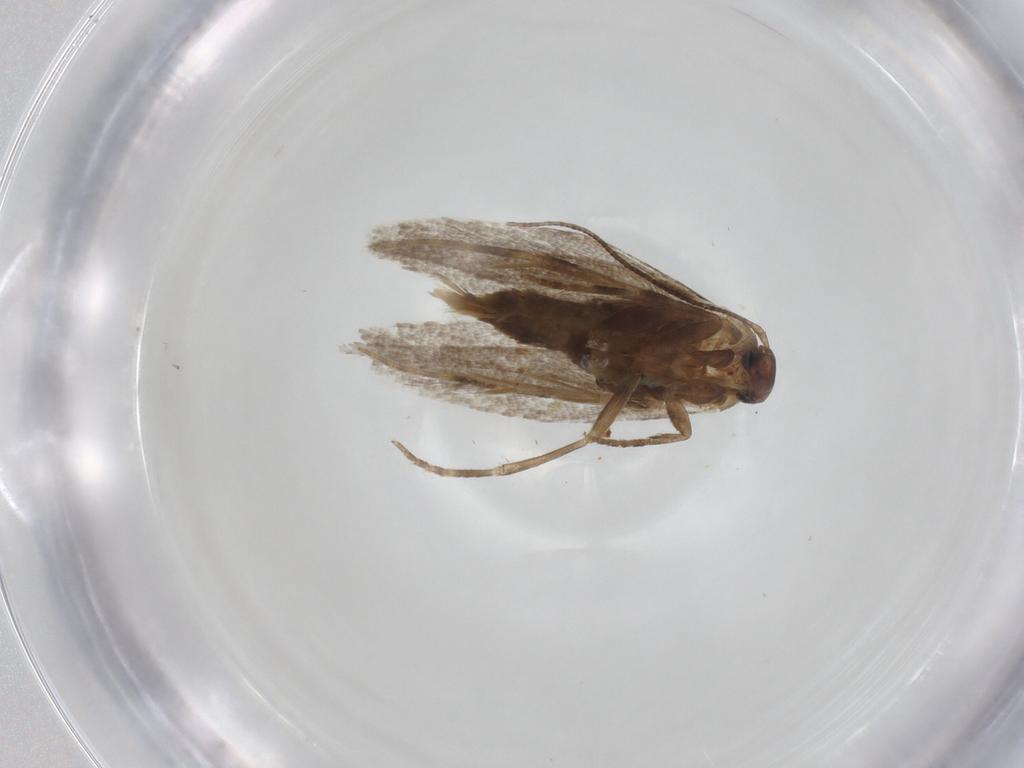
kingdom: Animalia
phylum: Arthropoda
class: Insecta
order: Lepidoptera
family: Elachistidae
